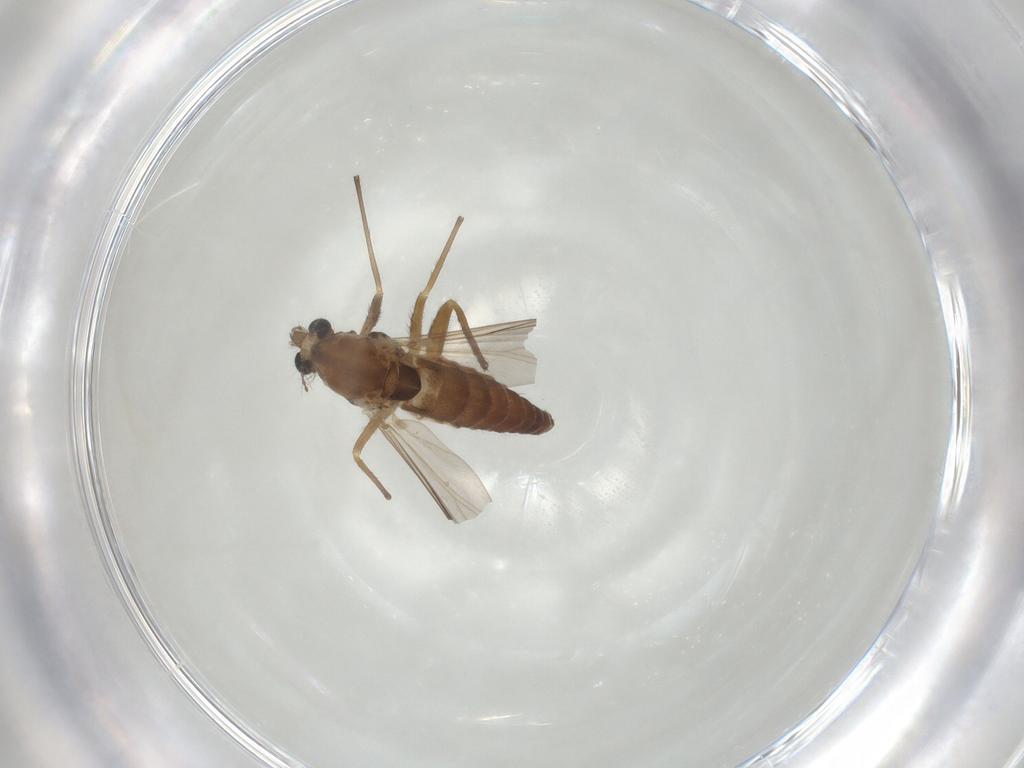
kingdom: Animalia
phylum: Arthropoda
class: Insecta
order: Diptera
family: Chironomidae
